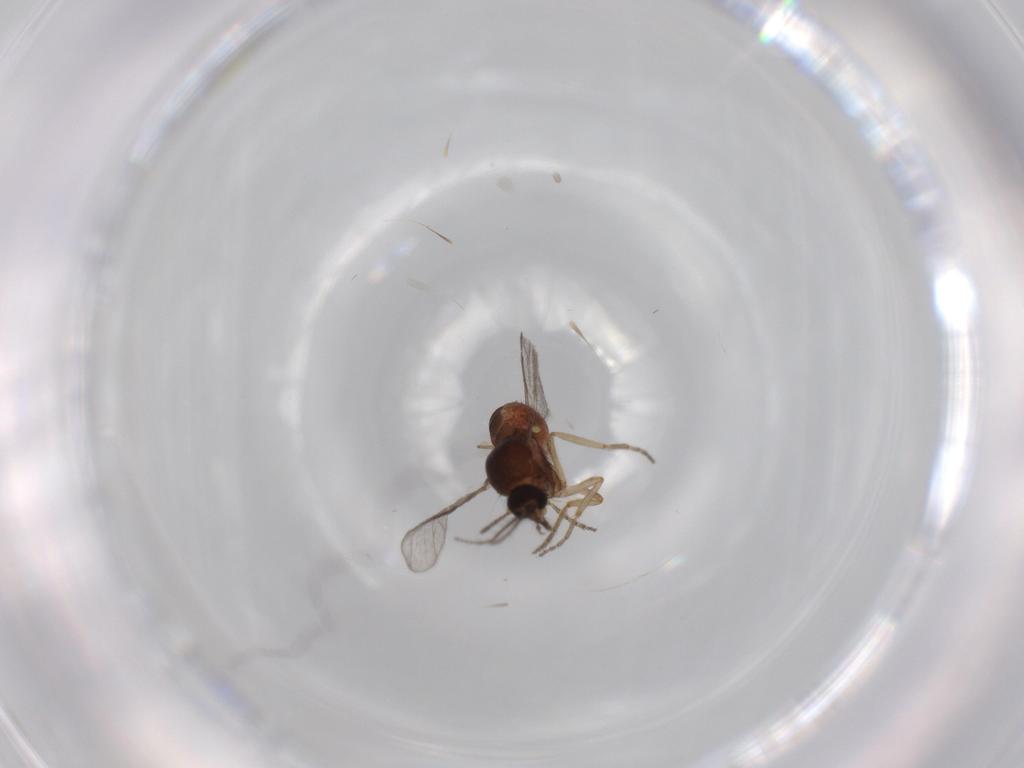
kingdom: Animalia
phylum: Arthropoda
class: Insecta
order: Diptera
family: Ceratopogonidae
